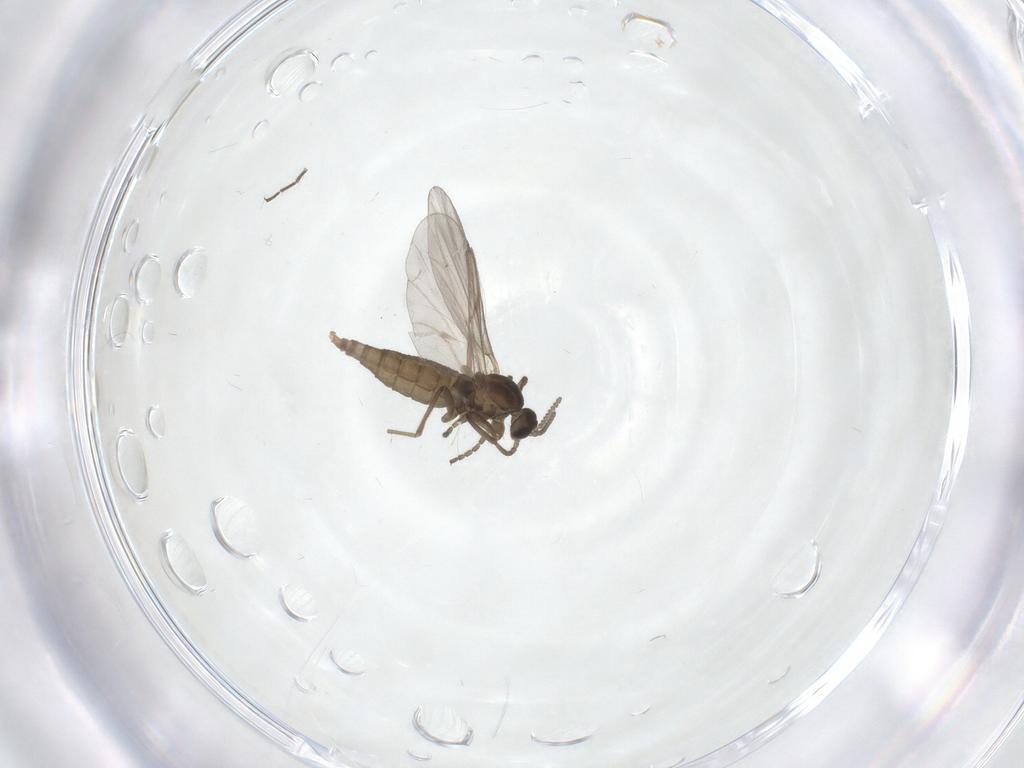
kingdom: Animalia
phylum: Arthropoda
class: Insecta
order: Diptera
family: Chironomidae
